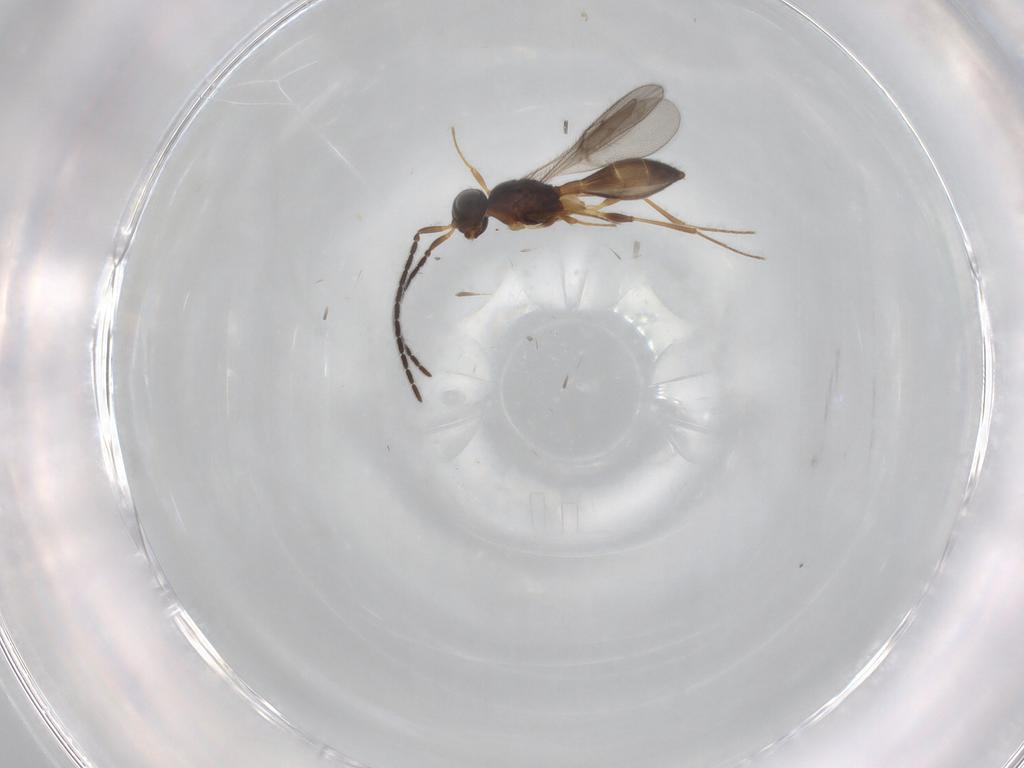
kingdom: Animalia
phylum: Arthropoda
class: Insecta
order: Hymenoptera
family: Scelionidae
